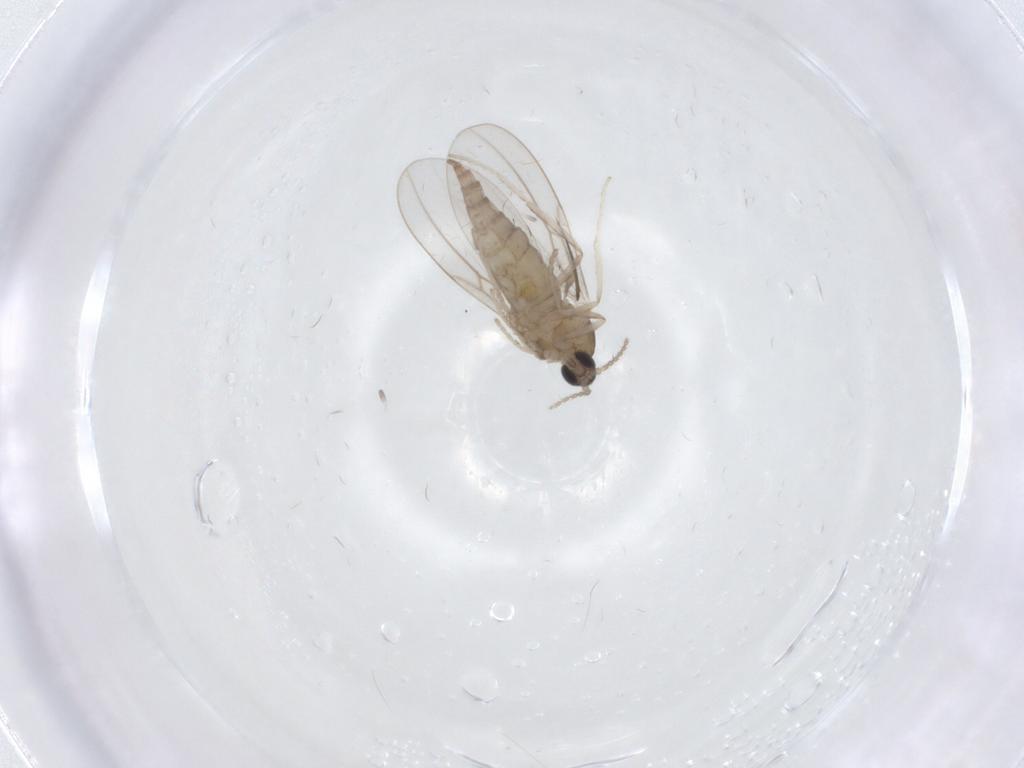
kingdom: Animalia
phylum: Arthropoda
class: Insecta
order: Diptera
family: Cecidomyiidae
